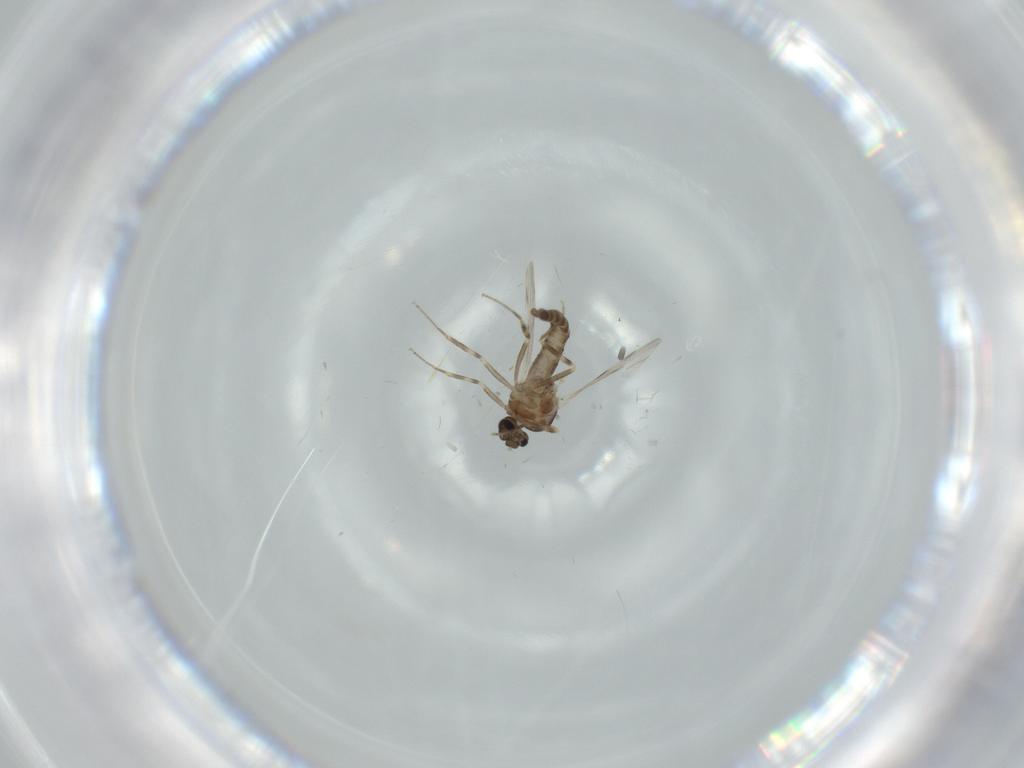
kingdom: Animalia
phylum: Arthropoda
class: Insecta
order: Diptera
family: Ceratopogonidae
